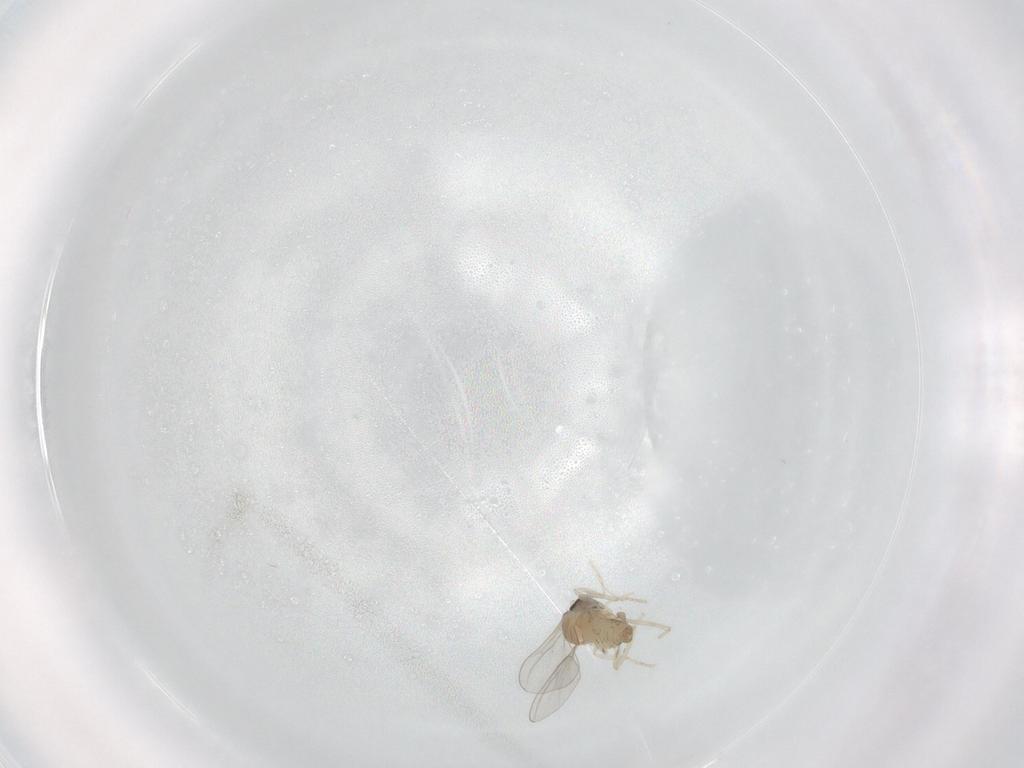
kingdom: Animalia
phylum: Arthropoda
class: Insecta
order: Diptera
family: Cecidomyiidae
